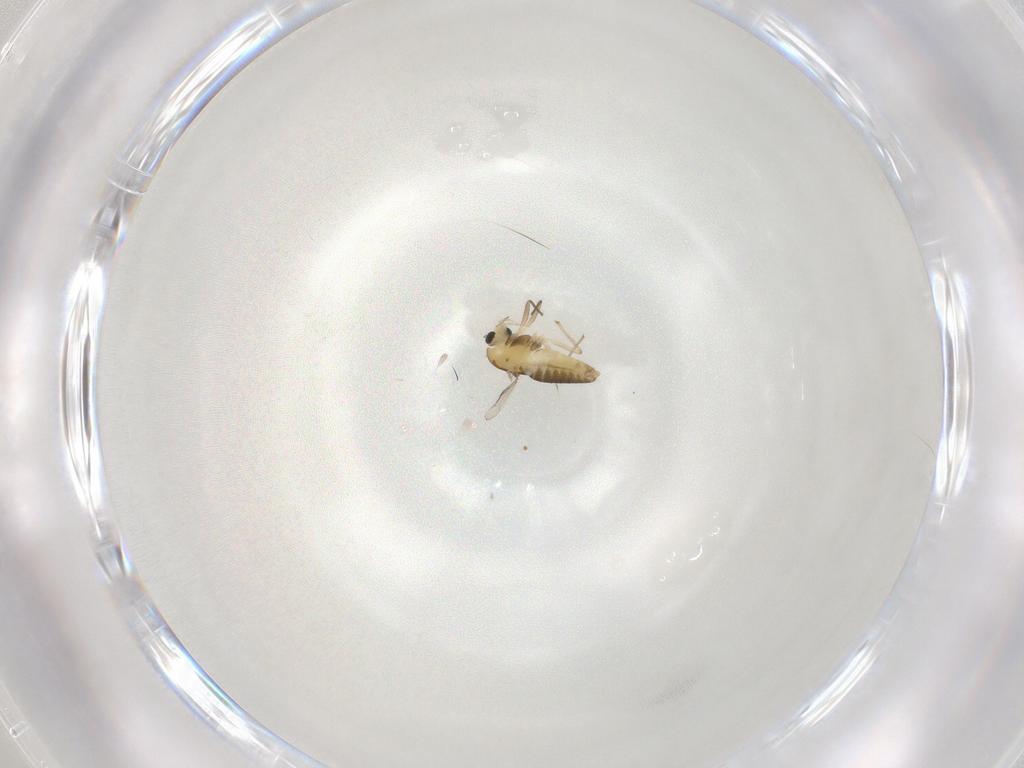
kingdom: Animalia
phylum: Arthropoda
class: Insecta
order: Diptera
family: Chironomidae
